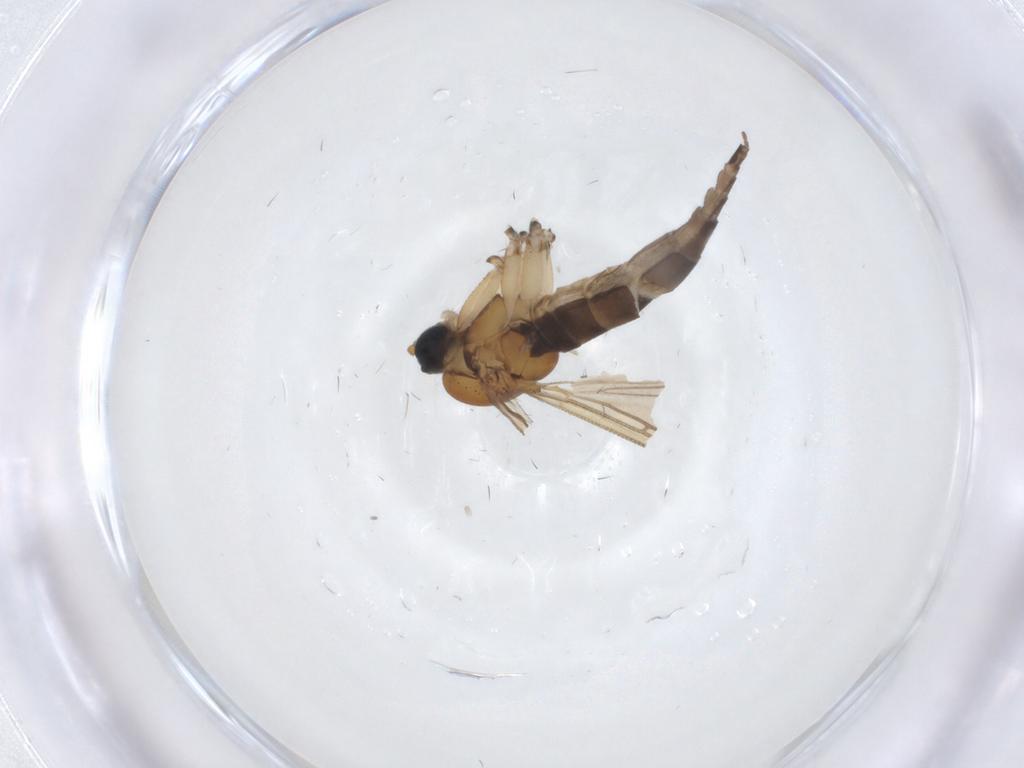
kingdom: Animalia
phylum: Arthropoda
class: Insecta
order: Diptera
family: Sciaridae
